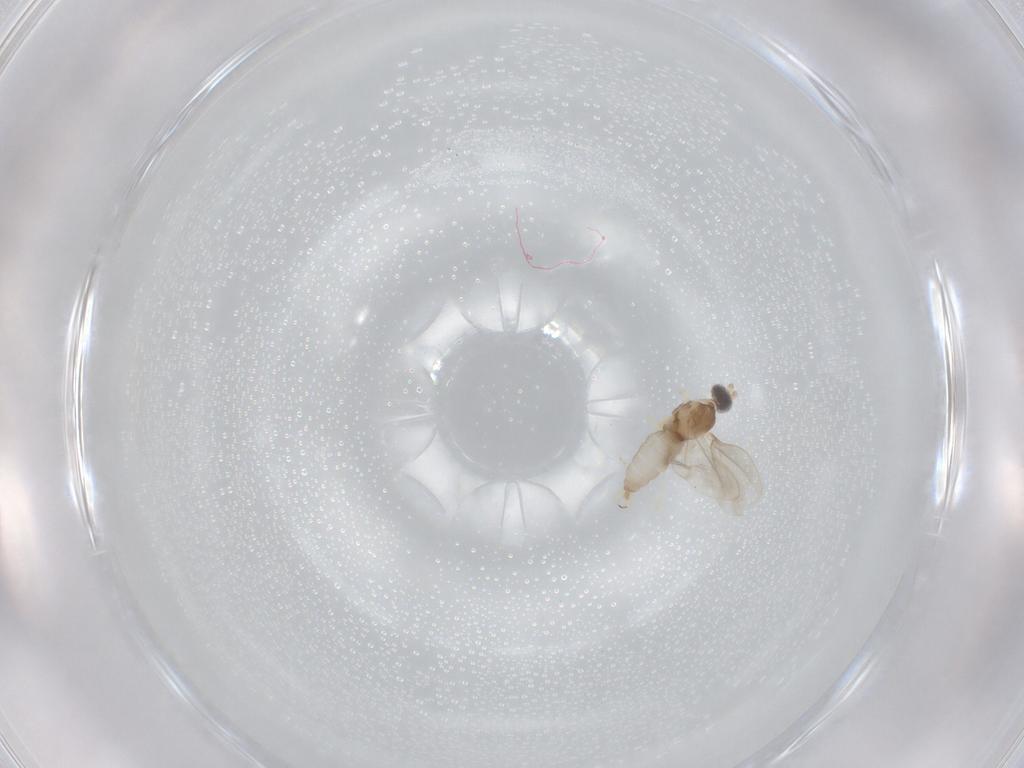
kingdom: Animalia
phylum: Arthropoda
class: Insecta
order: Diptera
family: Cecidomyiidae
